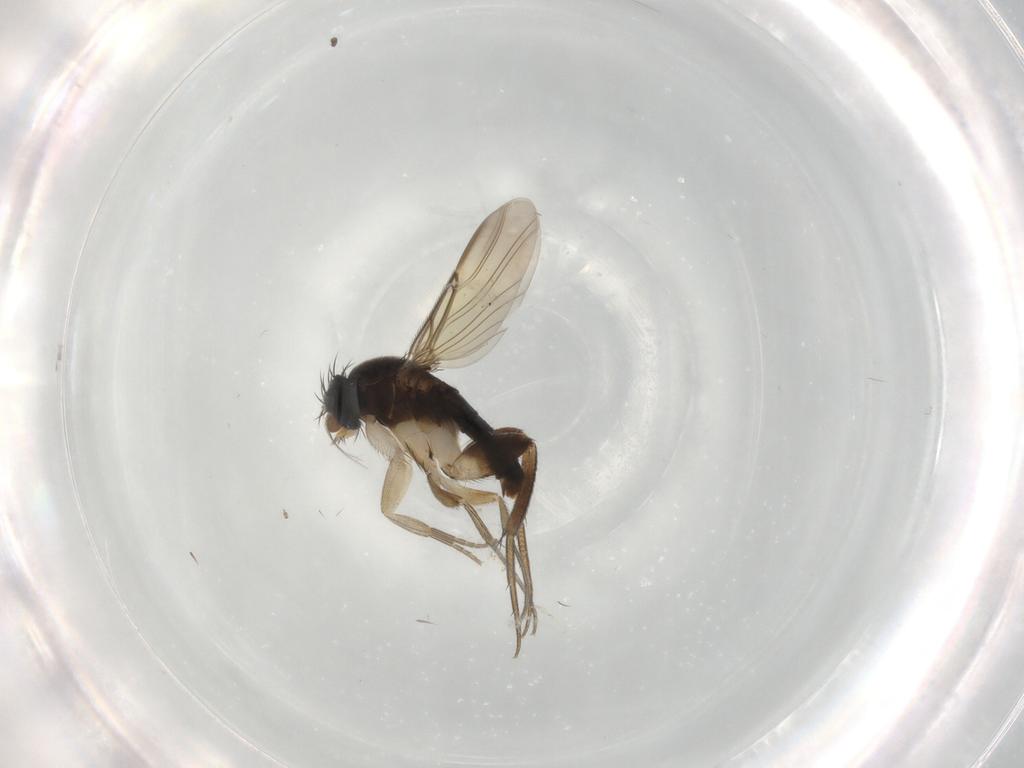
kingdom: Animalia
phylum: Arthropoda
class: Insecta
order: Diptera
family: Phoridae
